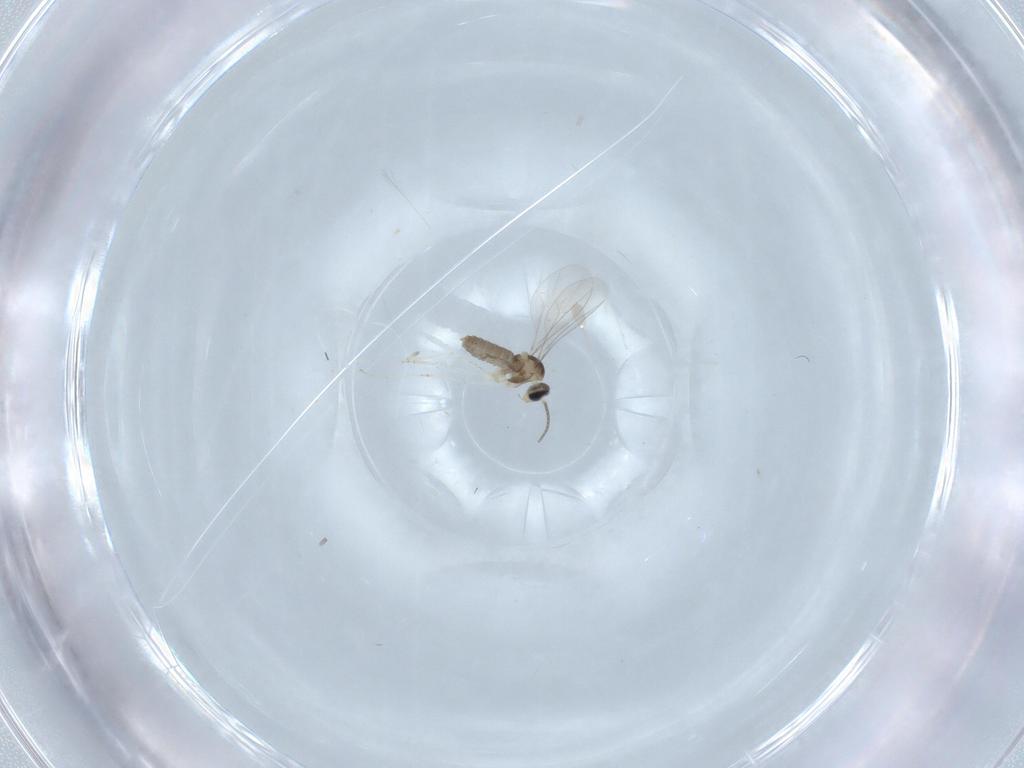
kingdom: Animalia
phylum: Arthropoda
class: Insecta
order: Diptera
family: Cecidomyiidae
